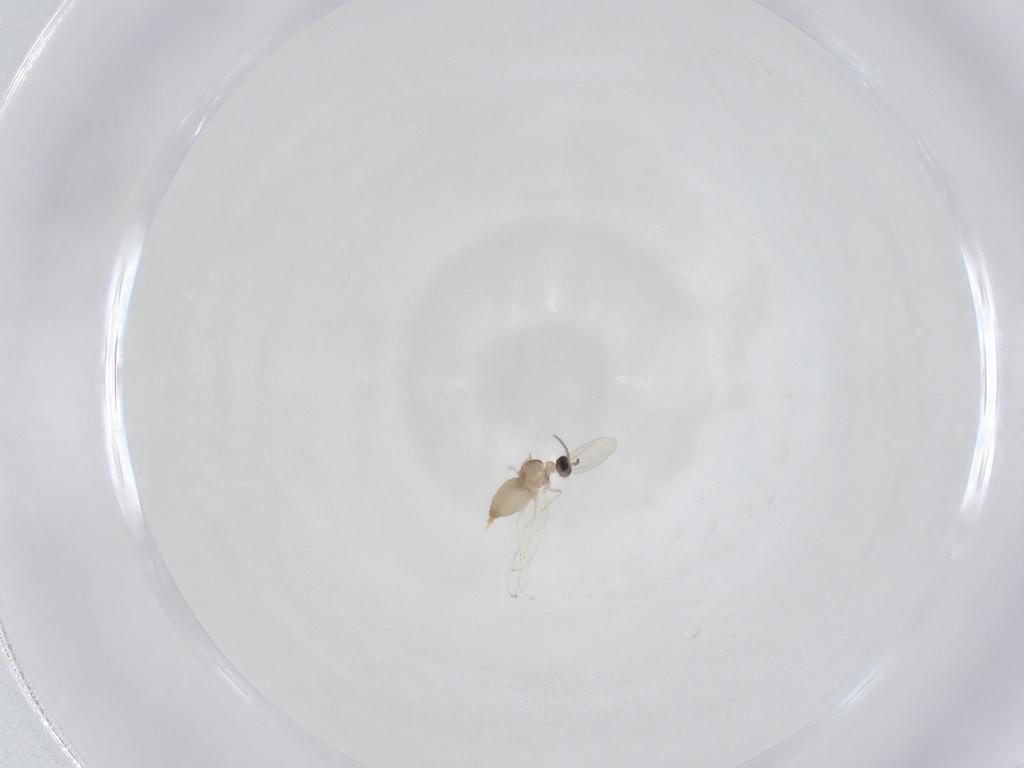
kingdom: Animalia
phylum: Arthropoda
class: Insecta
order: Diptera
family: Cecidomyiidae
